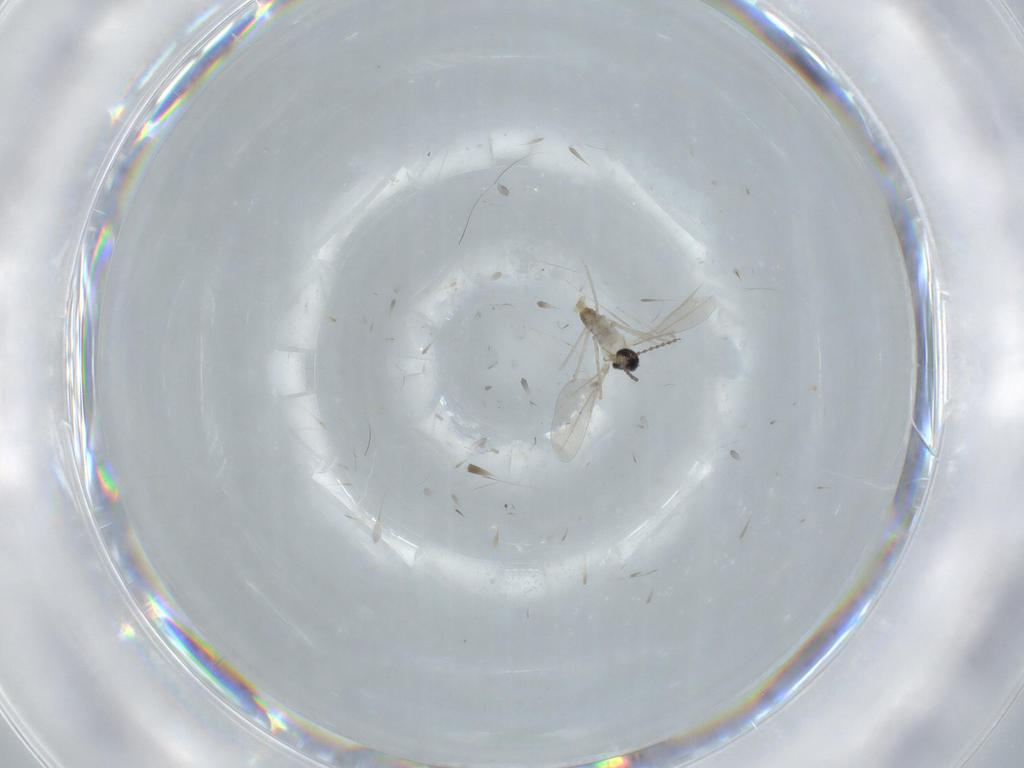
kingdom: Animalia
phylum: Arthropoda
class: Insecta
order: Diptera
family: Cecidomyiidae
